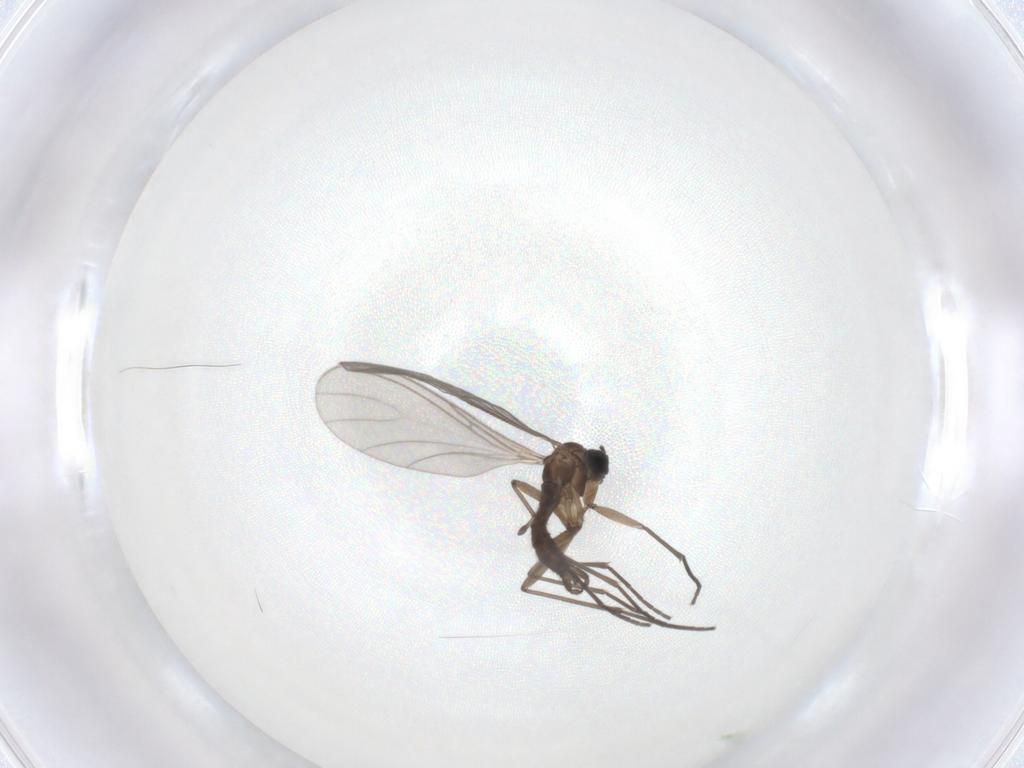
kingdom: Animalia
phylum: Arthropoda
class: Insecta
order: Diptera
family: Sciaridae
